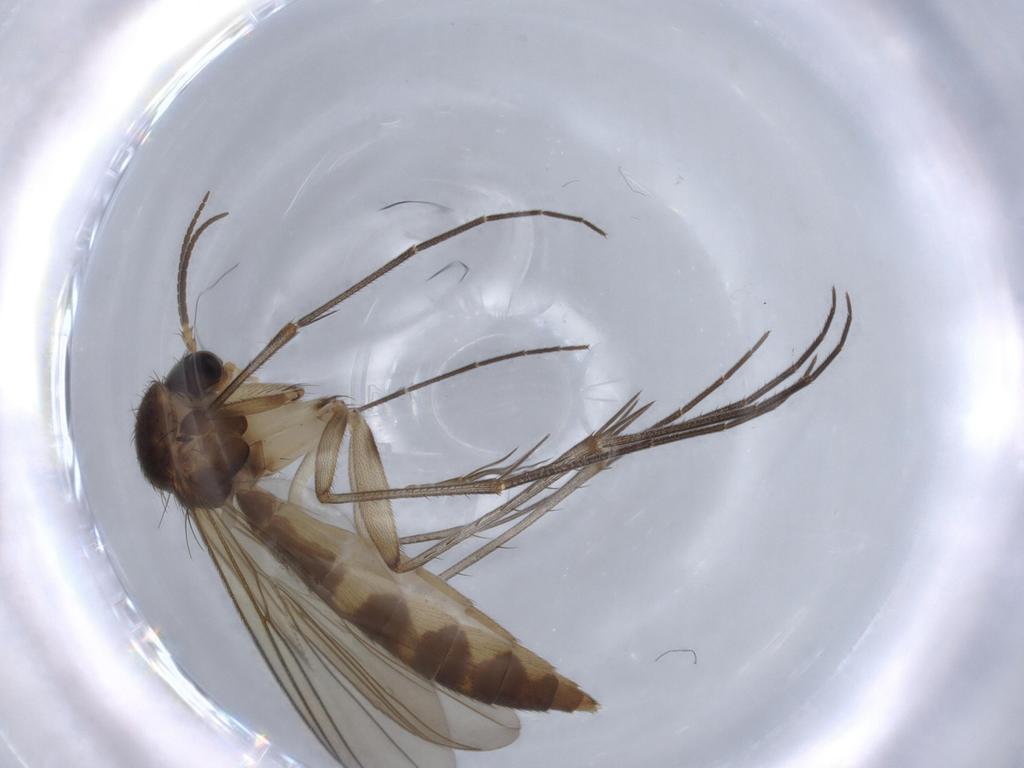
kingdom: Animalia
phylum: Arthropoda
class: Insecta
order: Diptera
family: Mycetophilidae
